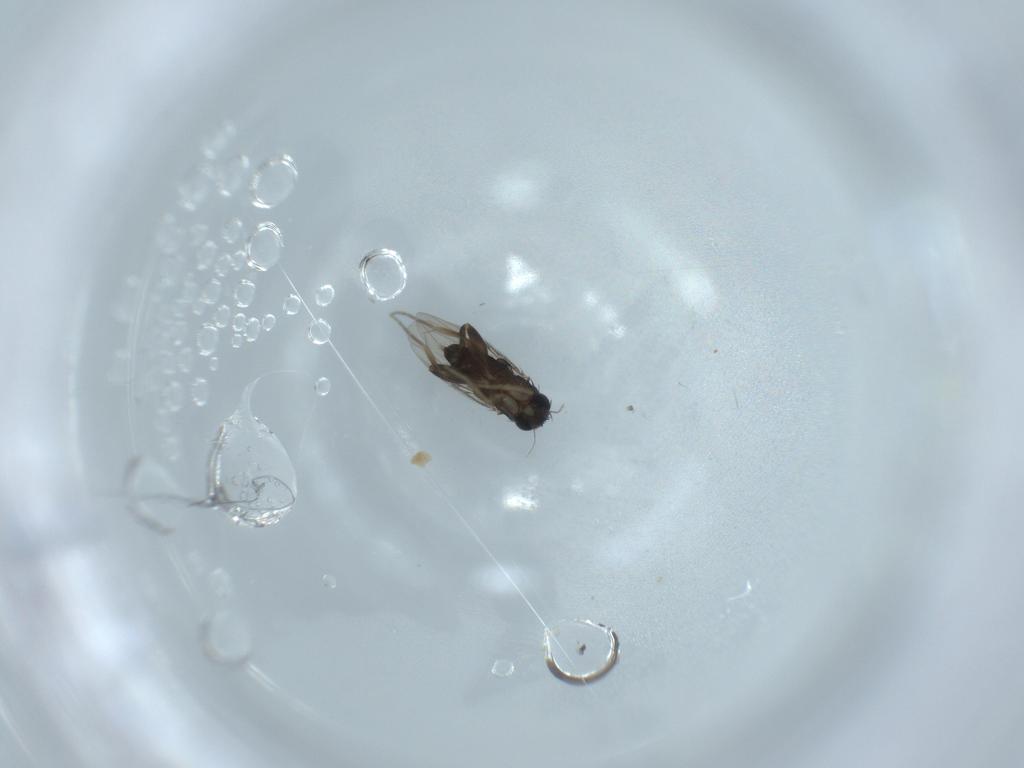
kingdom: Animalia
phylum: Arthropoda
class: Insecta
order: Diptera
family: Phoridae
